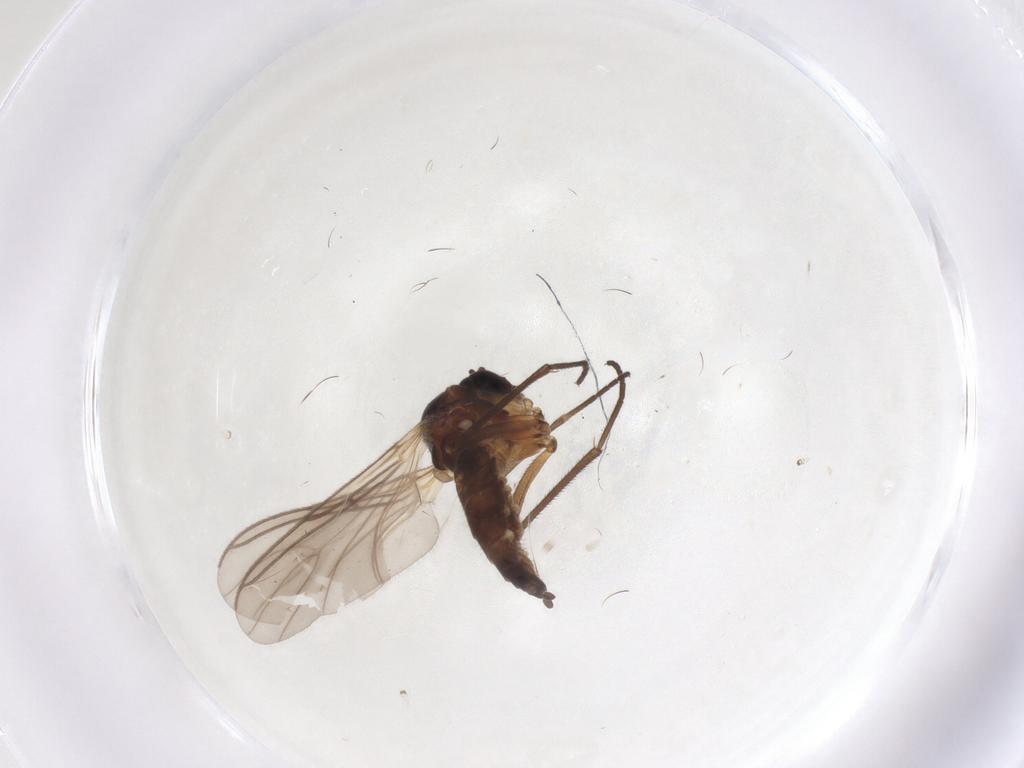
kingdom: Animalia
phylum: Arthropoda
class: Insecta
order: Diptera
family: Sciaridae
